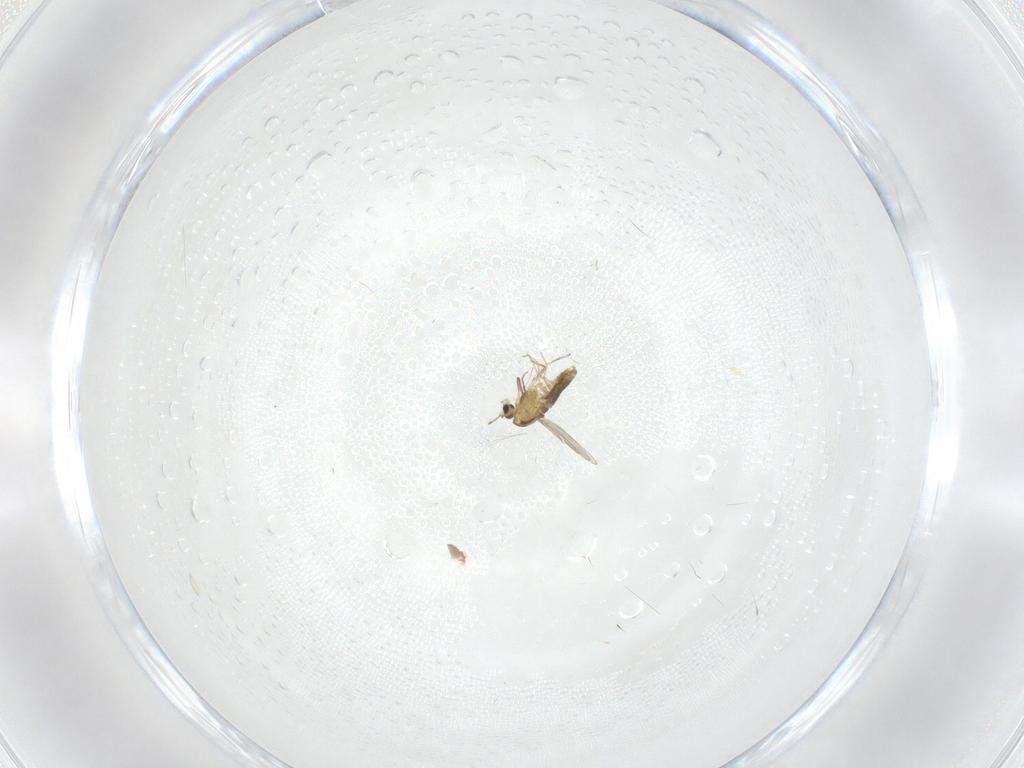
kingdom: Animalia
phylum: Arthropoda
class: Insecta
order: Diptera
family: Chironomidae
